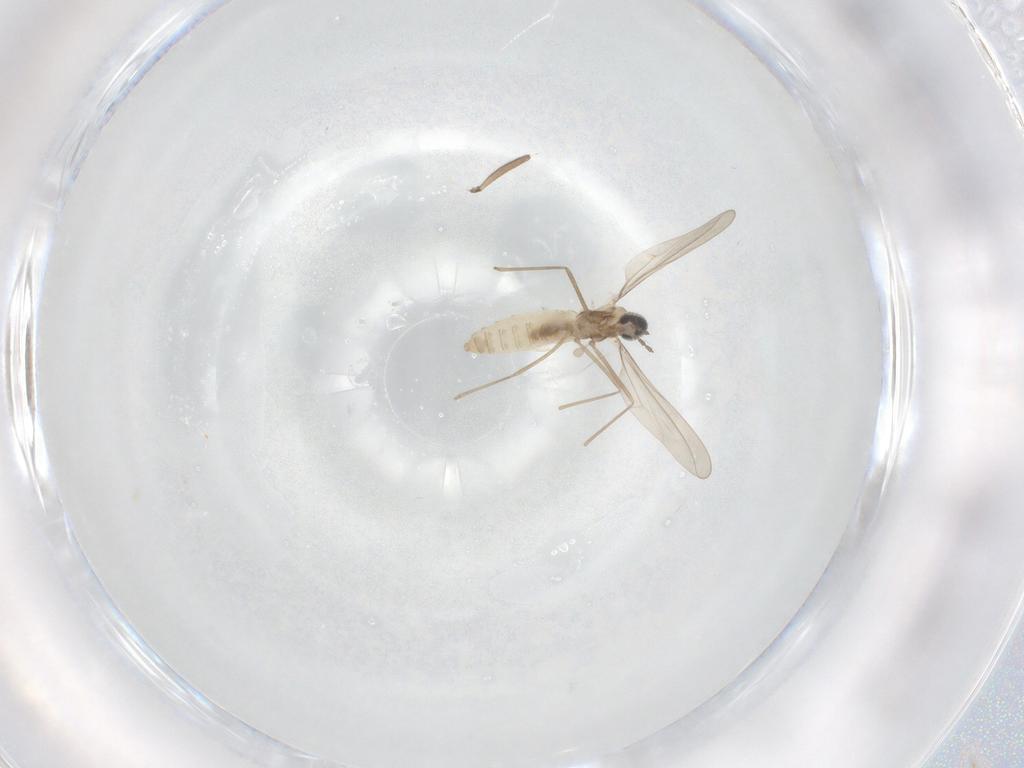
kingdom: Animalia
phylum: Arthropoda
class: Insecta
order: Diptera
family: Cecidomyiidae
